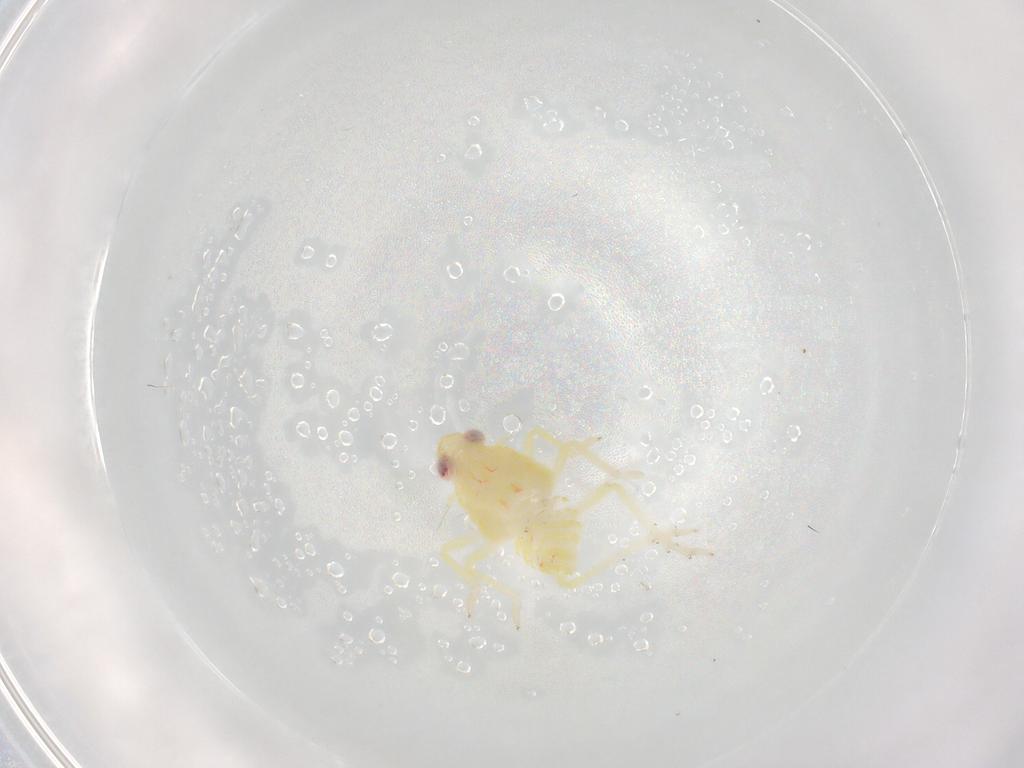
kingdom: Animalia
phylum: Arthropoda
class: Insecta
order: Hemiptera
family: Tropiduchidae
